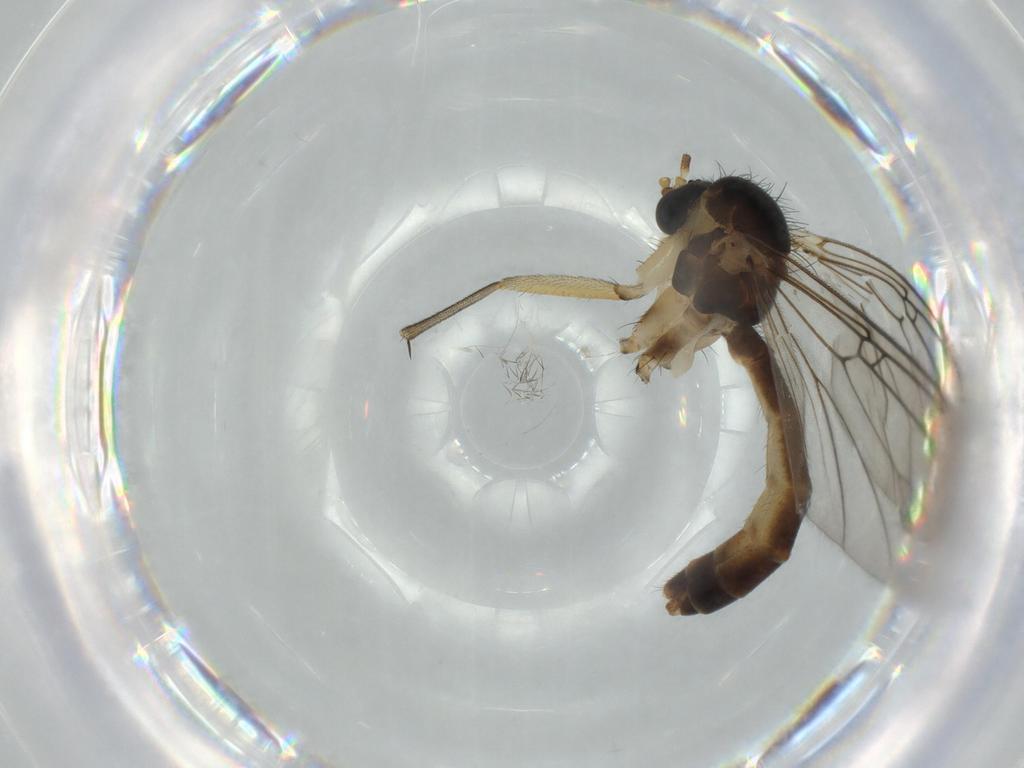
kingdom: Animalia
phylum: Arthropoda
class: Insecta
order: Diptera
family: Cecidomyiidae
